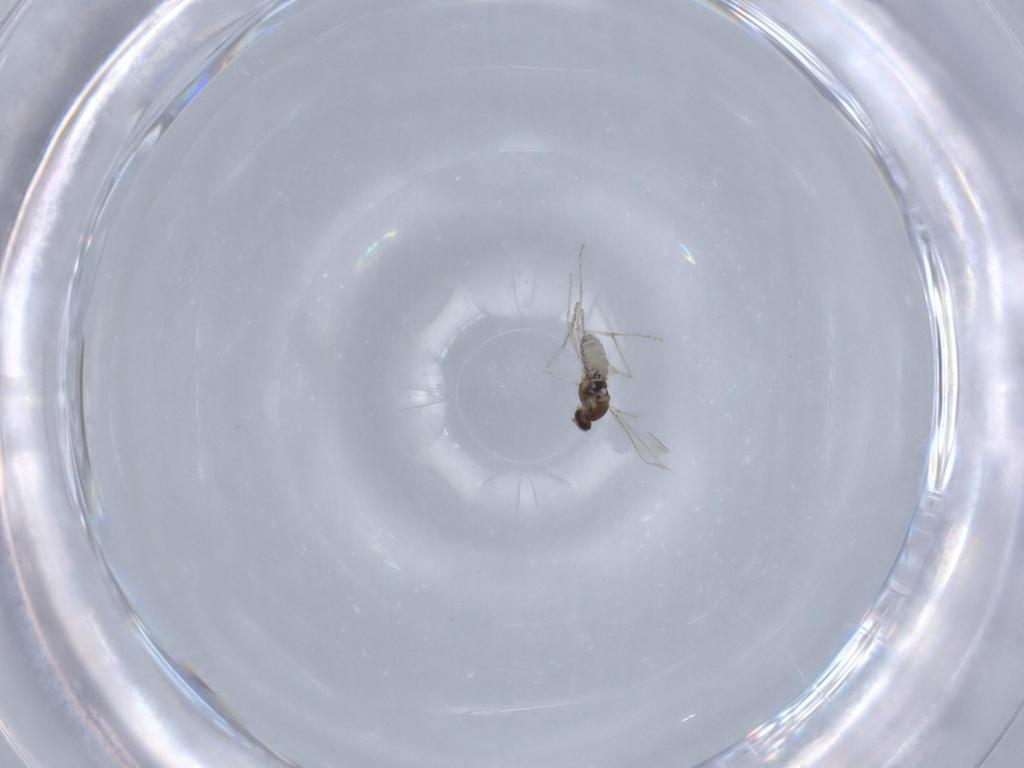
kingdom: Animalia
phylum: Arthropoda
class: Insecta
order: Diptera
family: Cecidomyiidae
